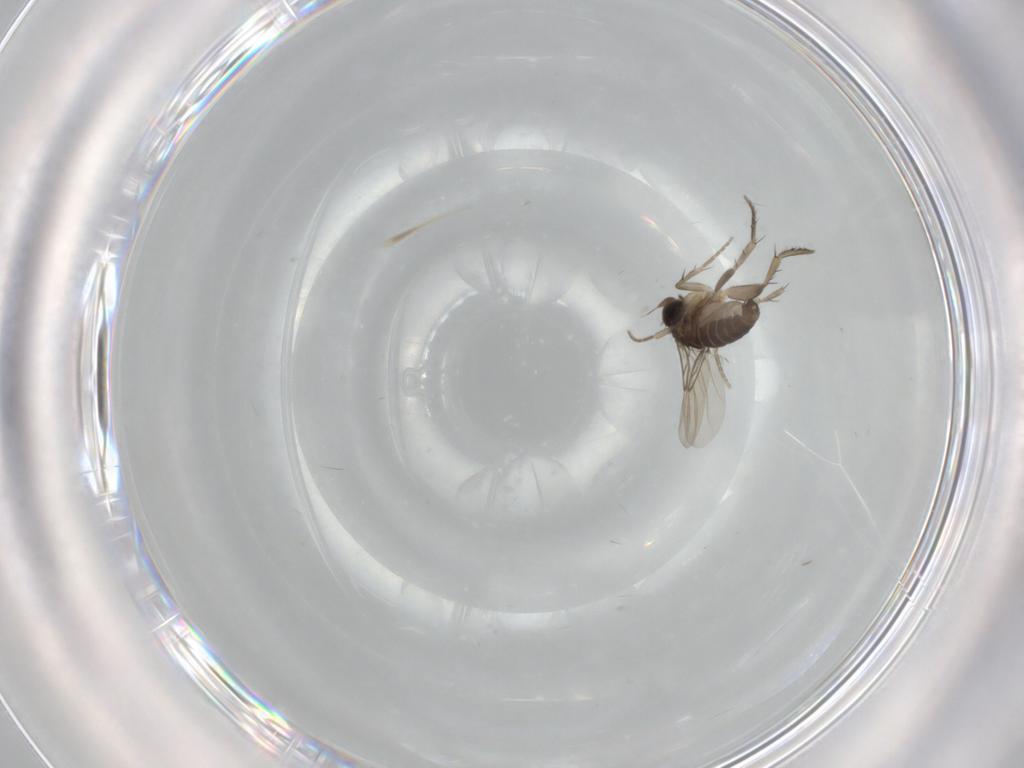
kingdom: Animalia
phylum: Arthropoda
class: Insecta
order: Diptera
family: Phoridae
